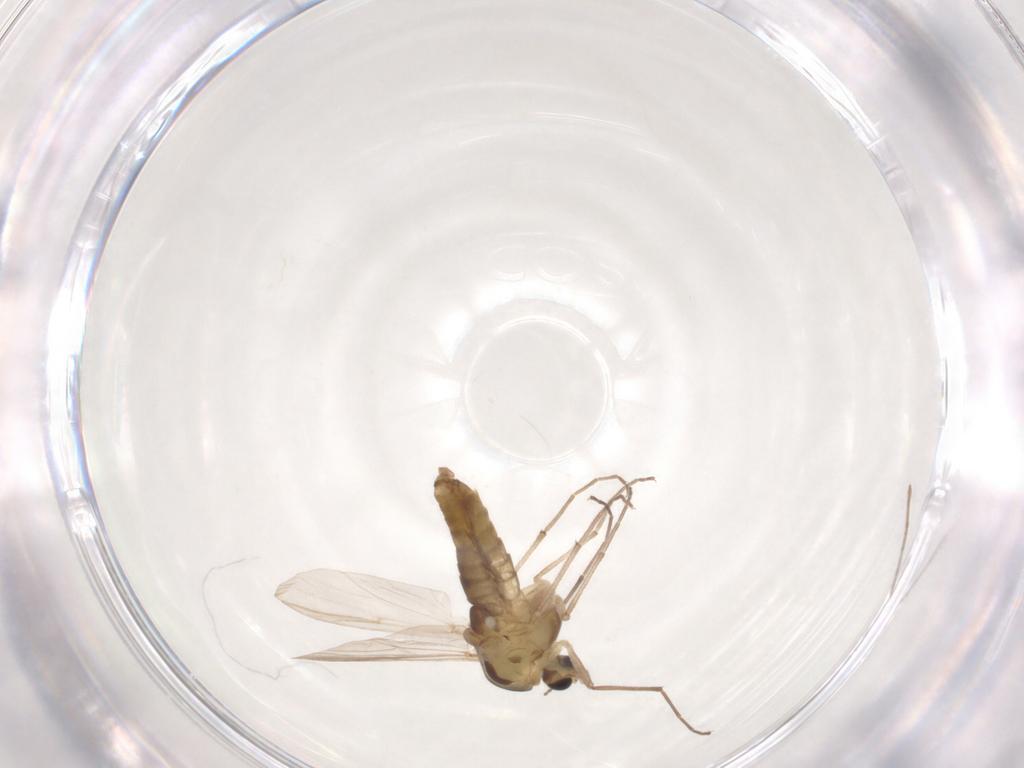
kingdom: Animalia
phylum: Arthropoda
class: Insecta
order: Diptera
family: Chironomidae
